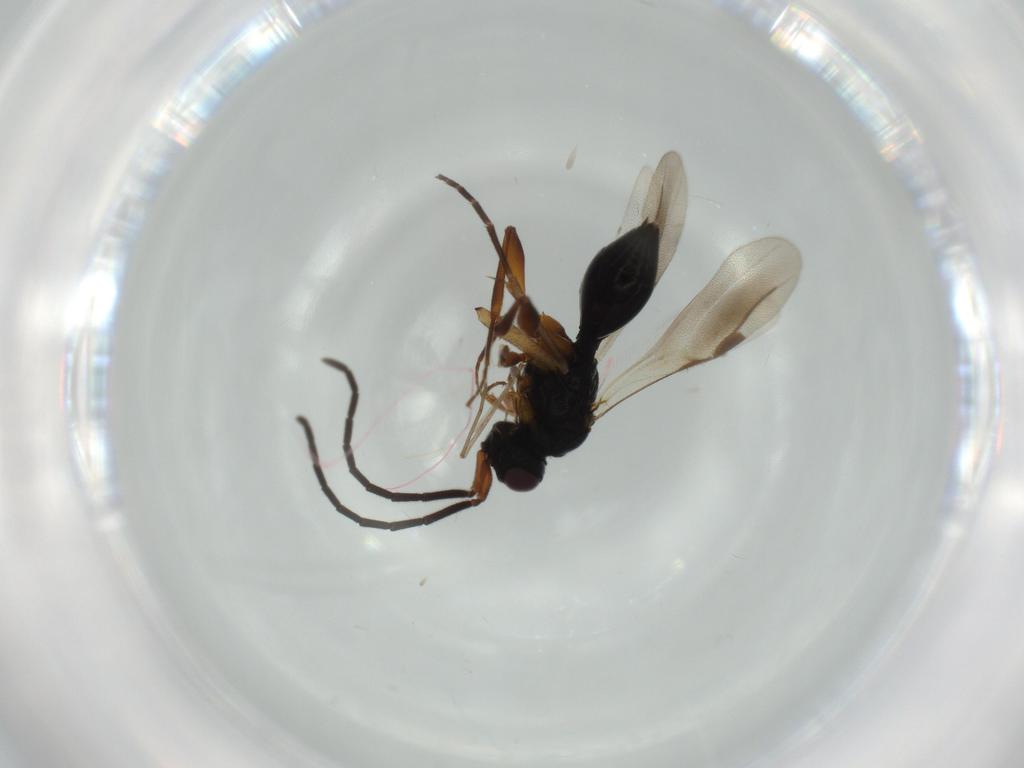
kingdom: Animalia
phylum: Arthropoda
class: Insecta
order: Hymenoptera
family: Megaspilidae
